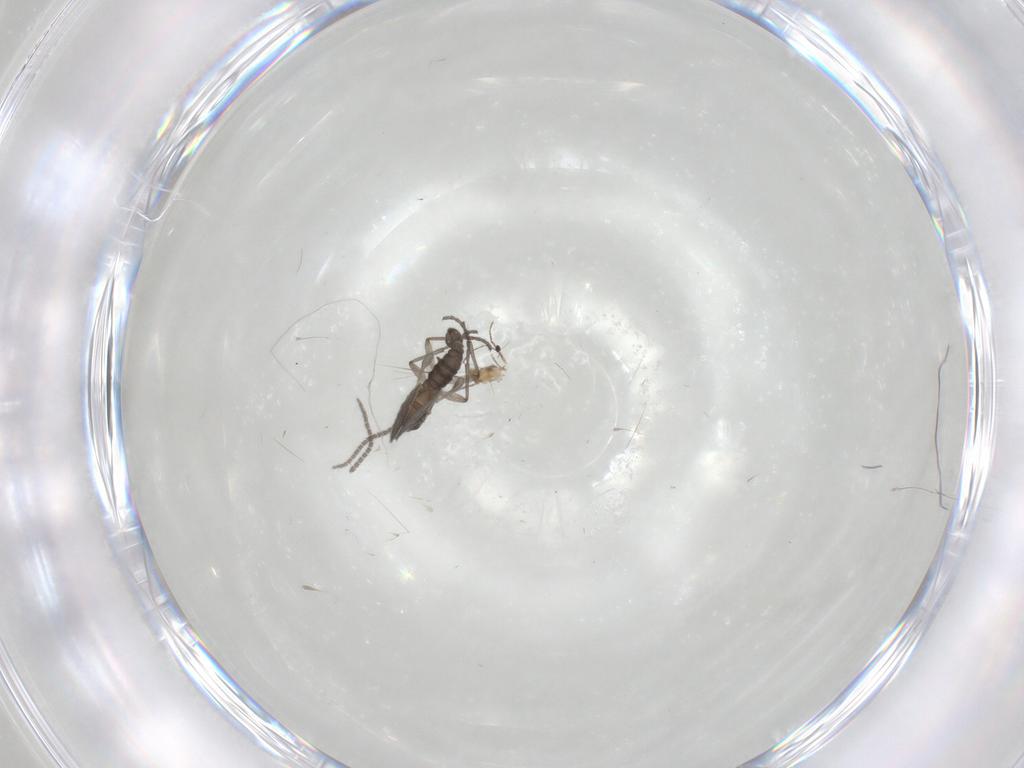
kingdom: Animalia
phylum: Arthropoda
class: Insecta
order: Diptera
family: Sciaridae
